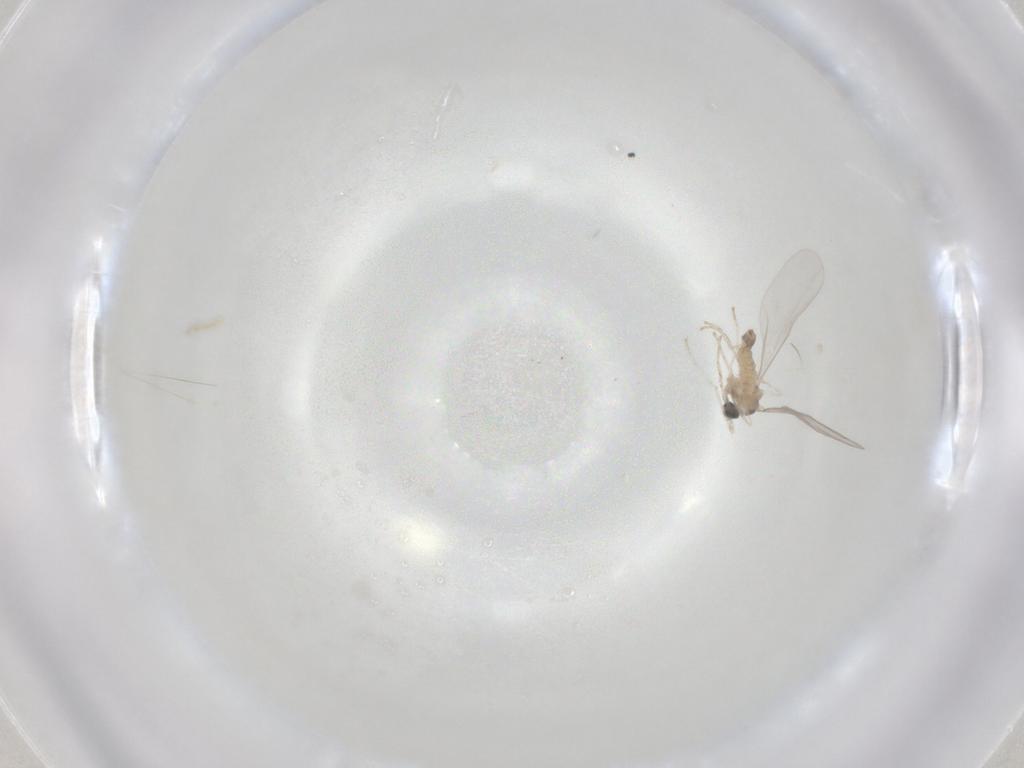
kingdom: Animalia
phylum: Arthropoda
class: Insecta
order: Diptera
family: Cecidomyiidae
